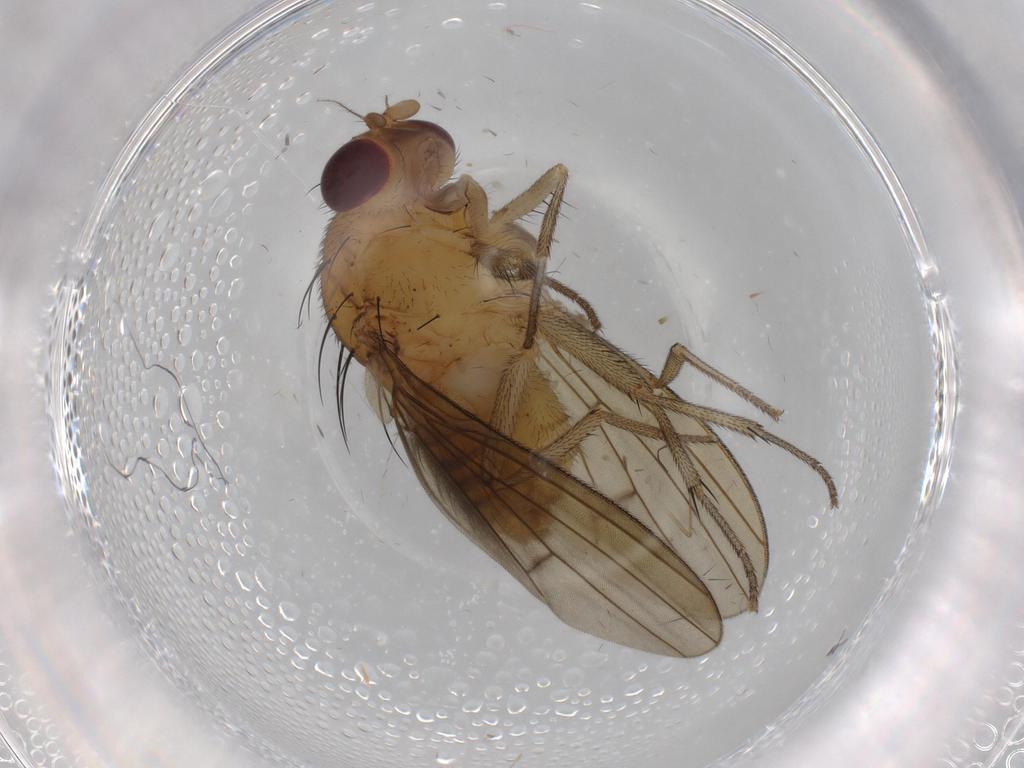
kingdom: Animalia
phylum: Arthropoda
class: Insecta
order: Diptera
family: Lauxaniidae
